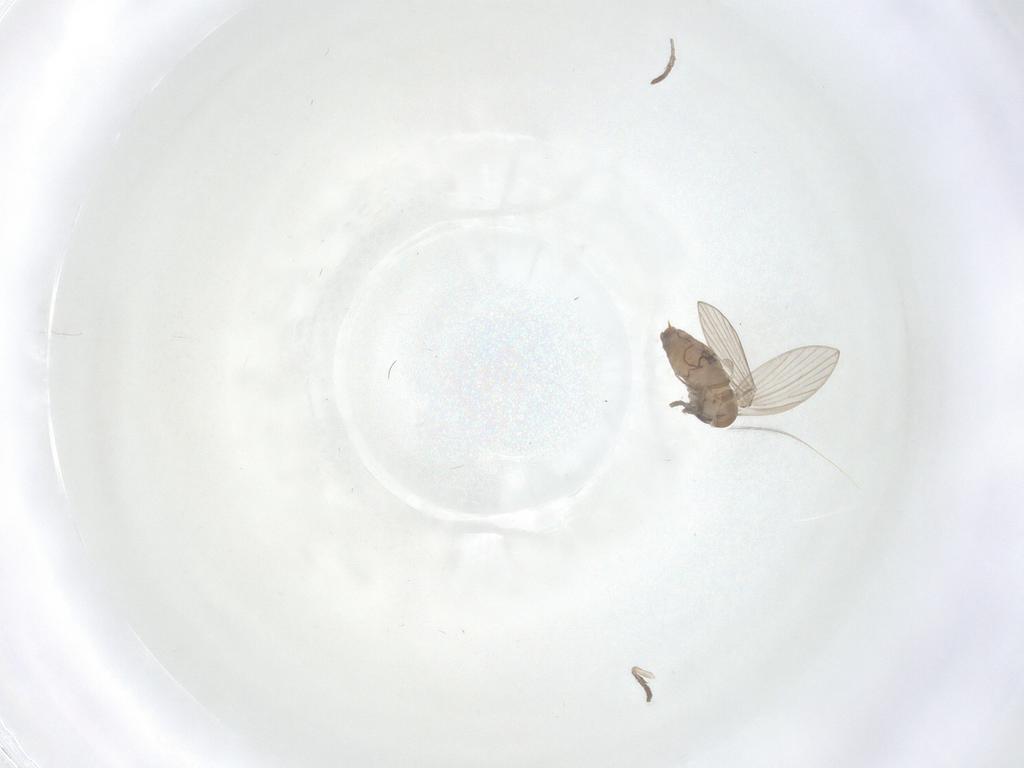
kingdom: Animalia
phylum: Arthropoda
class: Insecta
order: Diptera
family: Psychodidae
